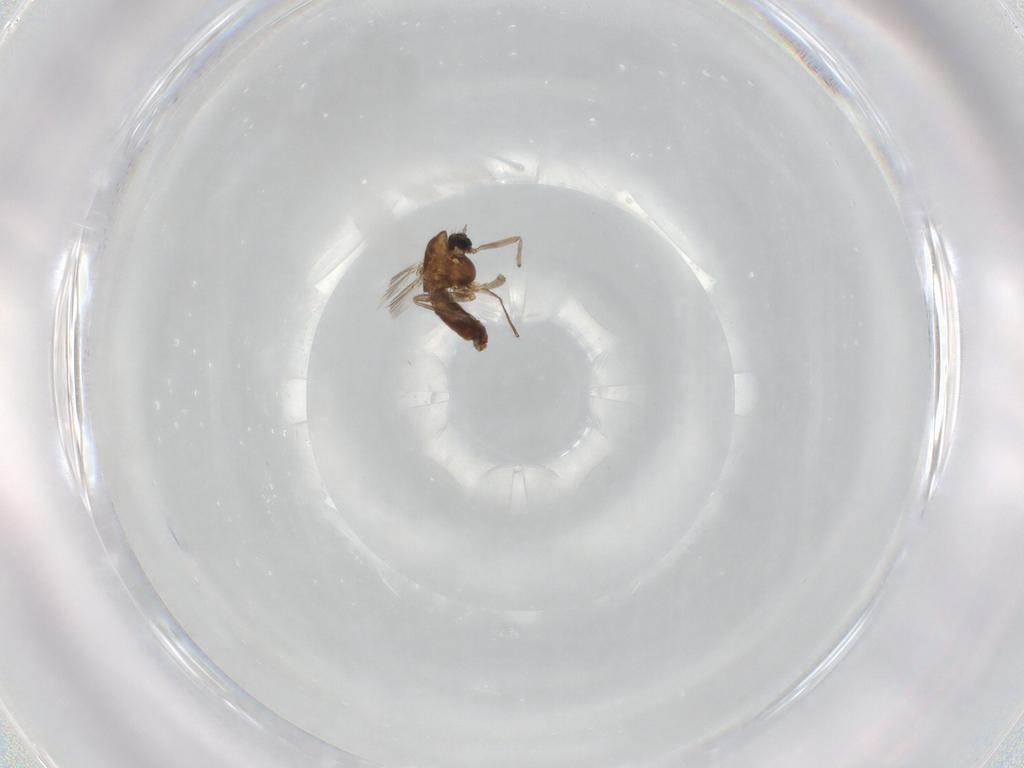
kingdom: Animalia
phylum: Arthropoda
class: Insecta
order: Diptera
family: Chironomidae
